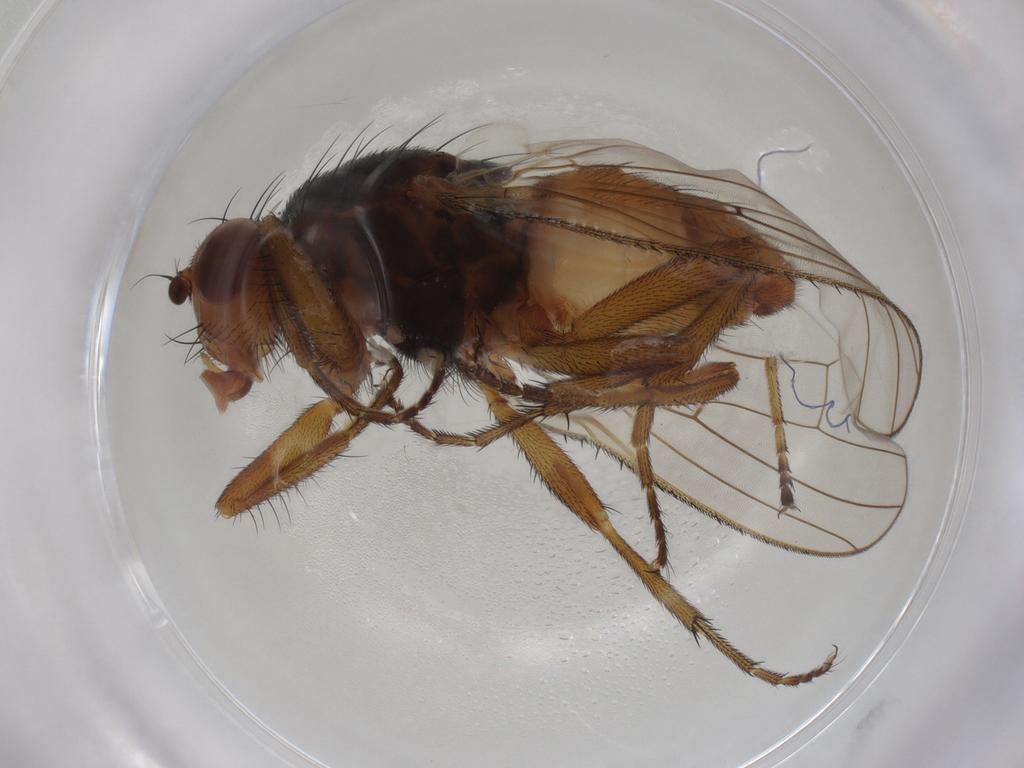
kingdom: Animalia
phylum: Arthropoda
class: Insecta
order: Diptera
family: Heleomyzidae
